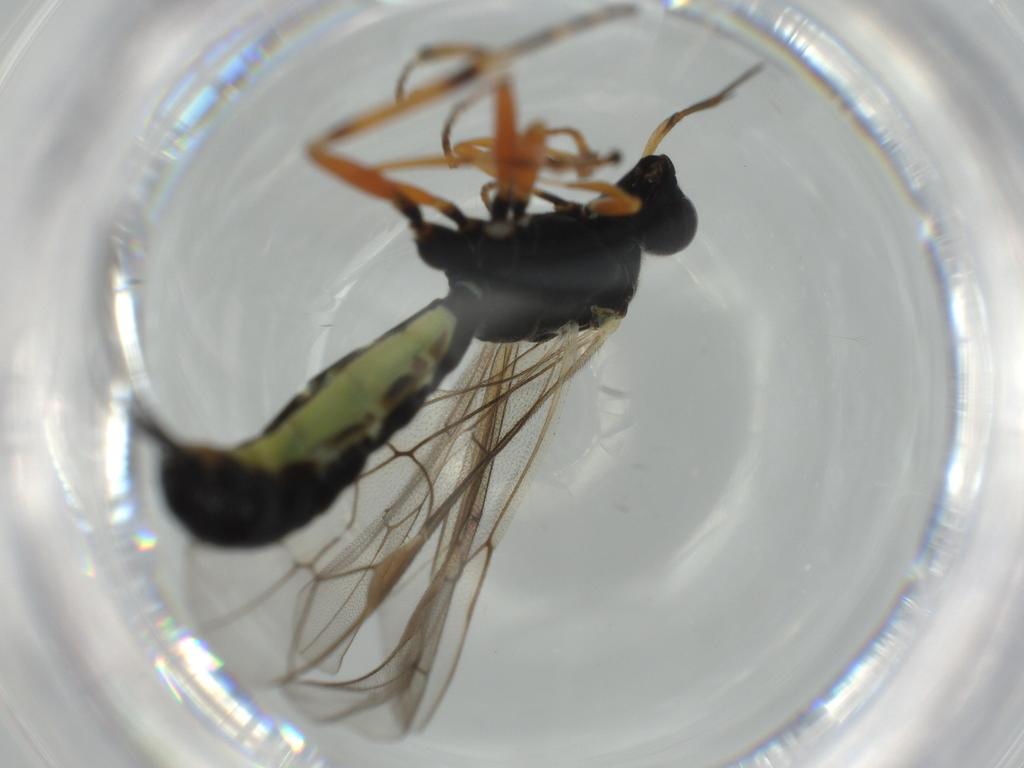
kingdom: Animalia
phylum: Arthropoda
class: Insecta
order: Hymenoptera
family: Ichneumonidae
